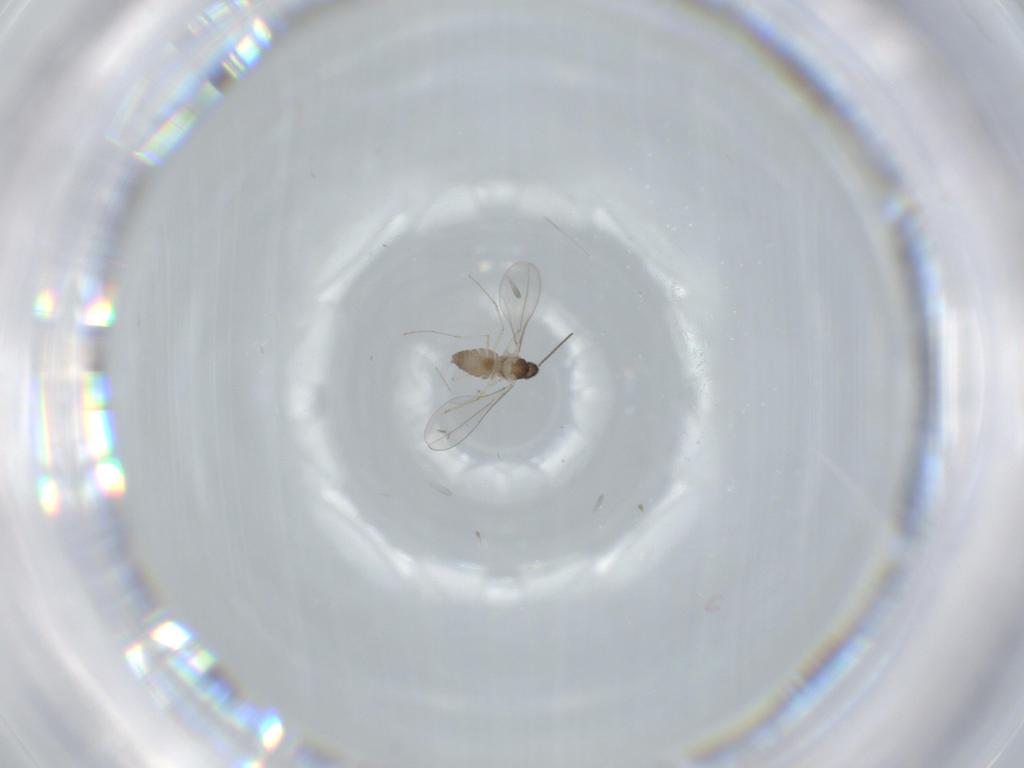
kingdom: Animalia
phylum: Arthropoda
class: Insecta
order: Diptera
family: Cecidomyiidae
